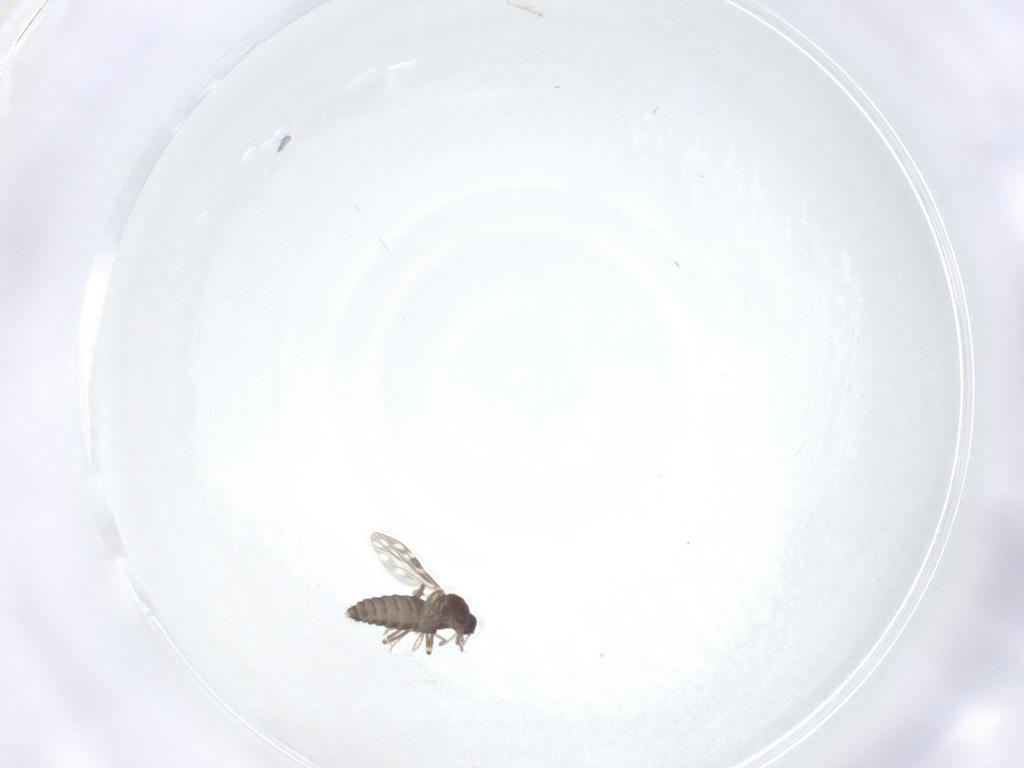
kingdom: Animalia
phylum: Arthropoda
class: Insecta
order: Diptera
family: Ceratopogonidae
